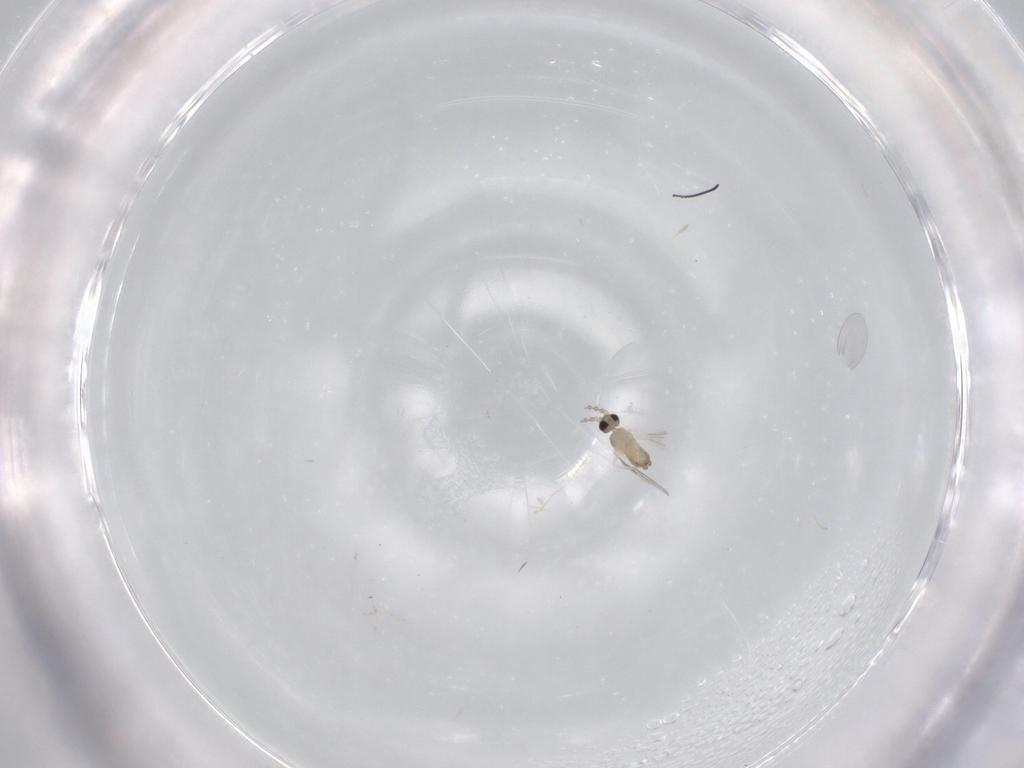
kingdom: Animalia
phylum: Arthropoda
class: Insecta
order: Diptera
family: Cecidomyiidae
